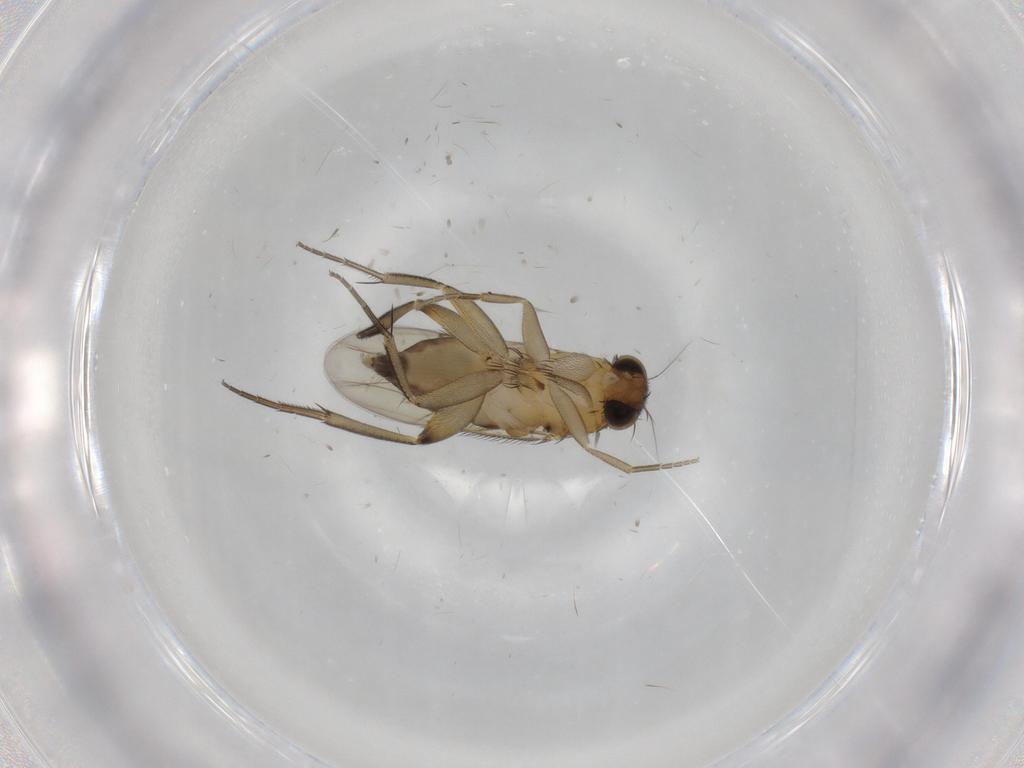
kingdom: Animalia
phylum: Arthropoda
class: Insecta
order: Diptera
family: Phoridae
